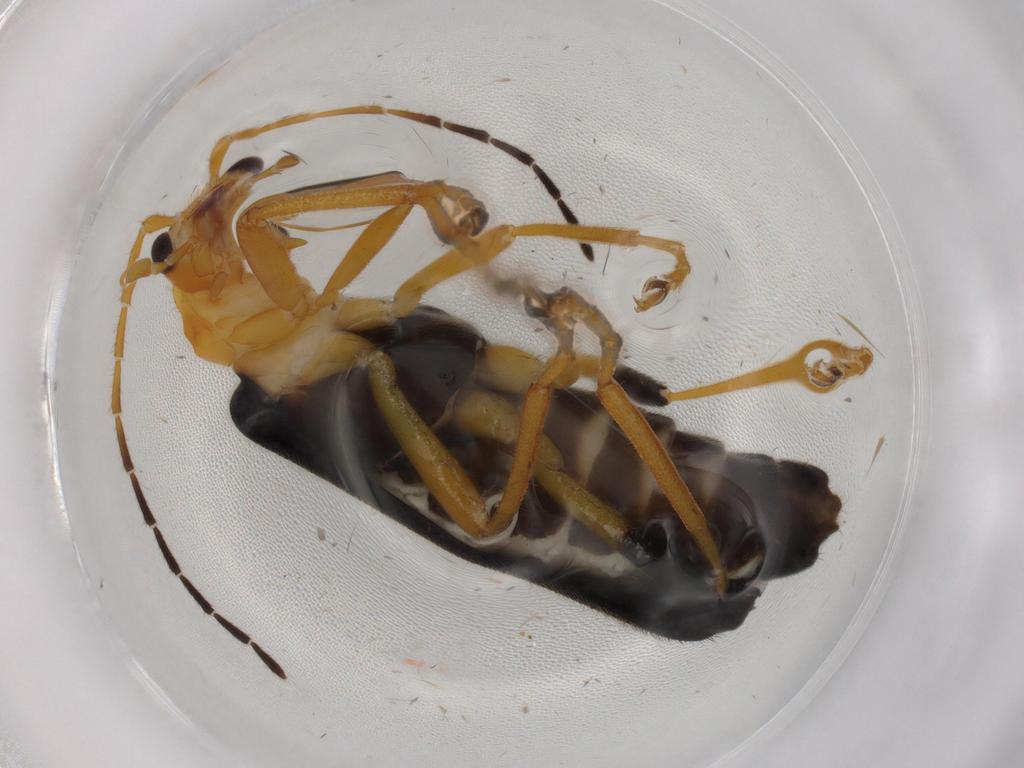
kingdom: Animalia
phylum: Arthropoda
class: Insecta
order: Coleoptera
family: Cantharidae
